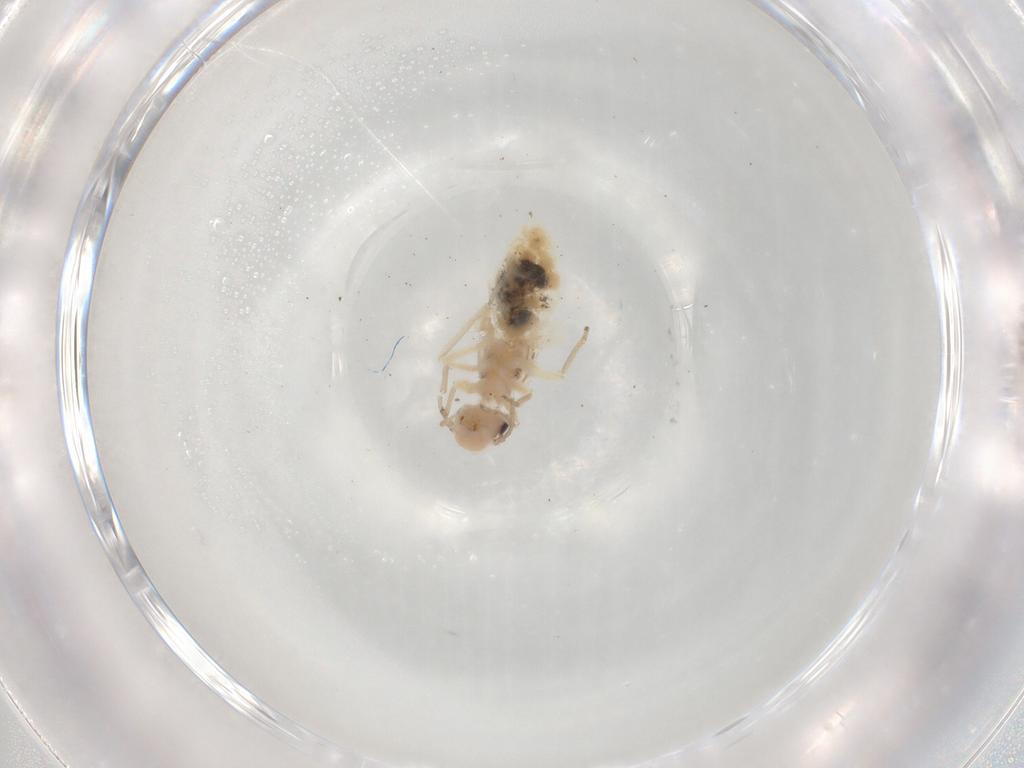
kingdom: Animalia
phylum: Arthropoda
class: Insecta
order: Psocodea
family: Caeciliusidae
